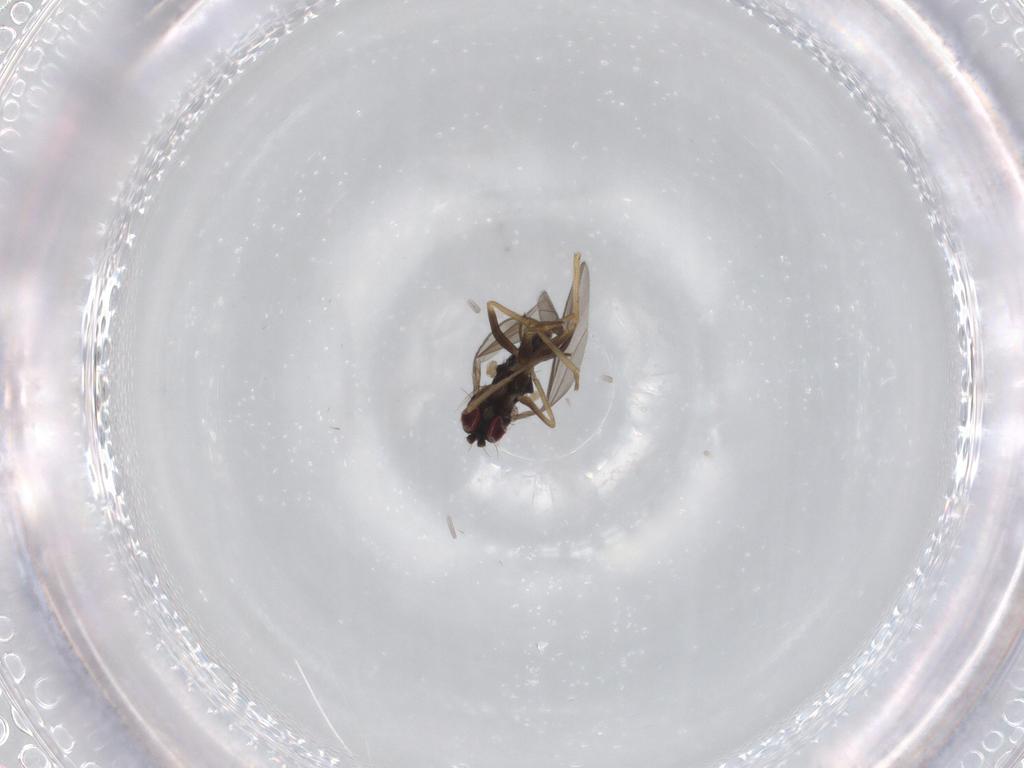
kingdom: Animalia
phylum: Arthropoda
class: Insecta
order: Diptera
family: Dolichopodidae
